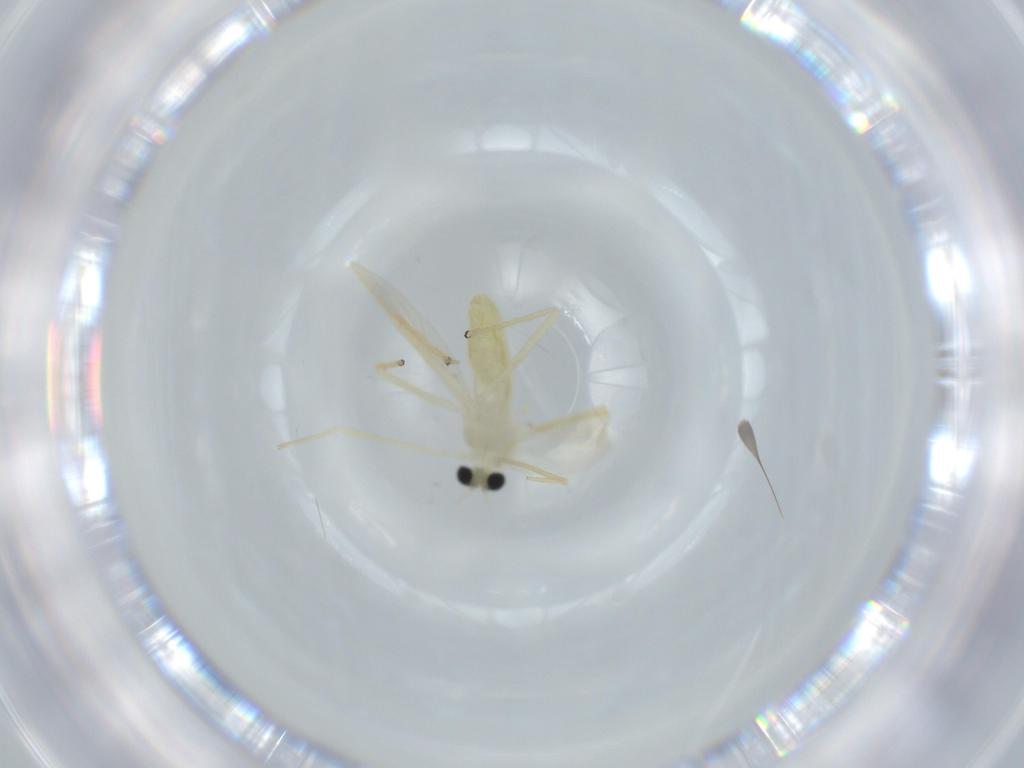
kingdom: Animalia
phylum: Arthropoda
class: Insecta
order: Diptera
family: Chironomidae
